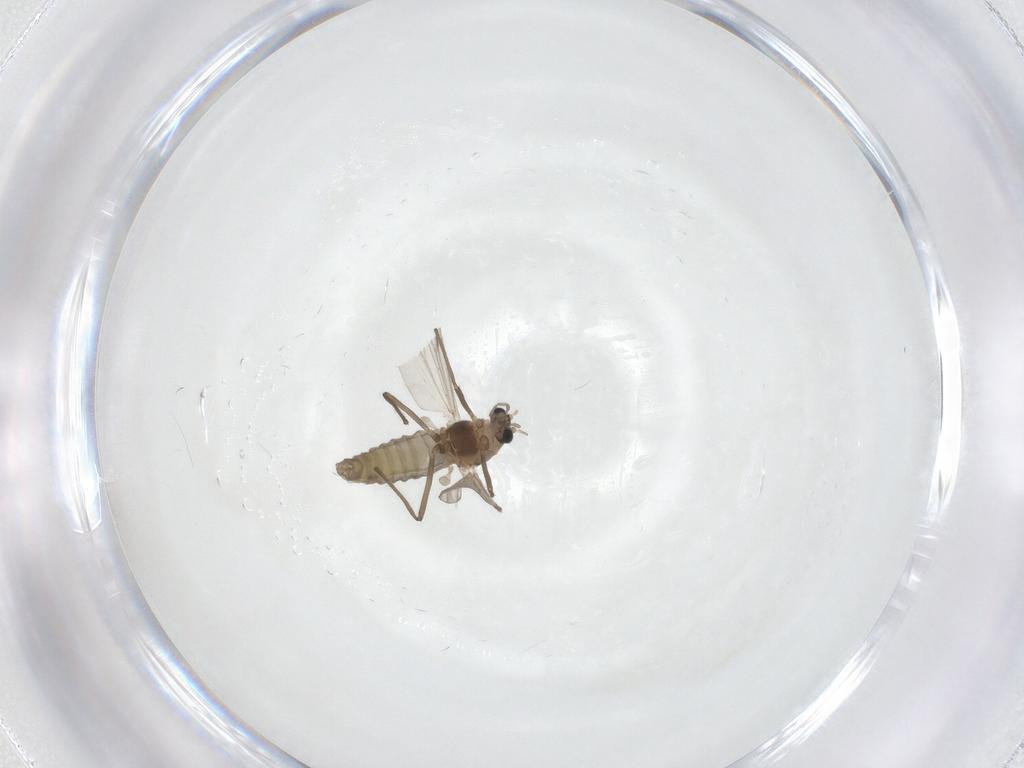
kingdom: Animalia
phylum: Arthropoda
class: Insecta
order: Diptera
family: Chironomidae
